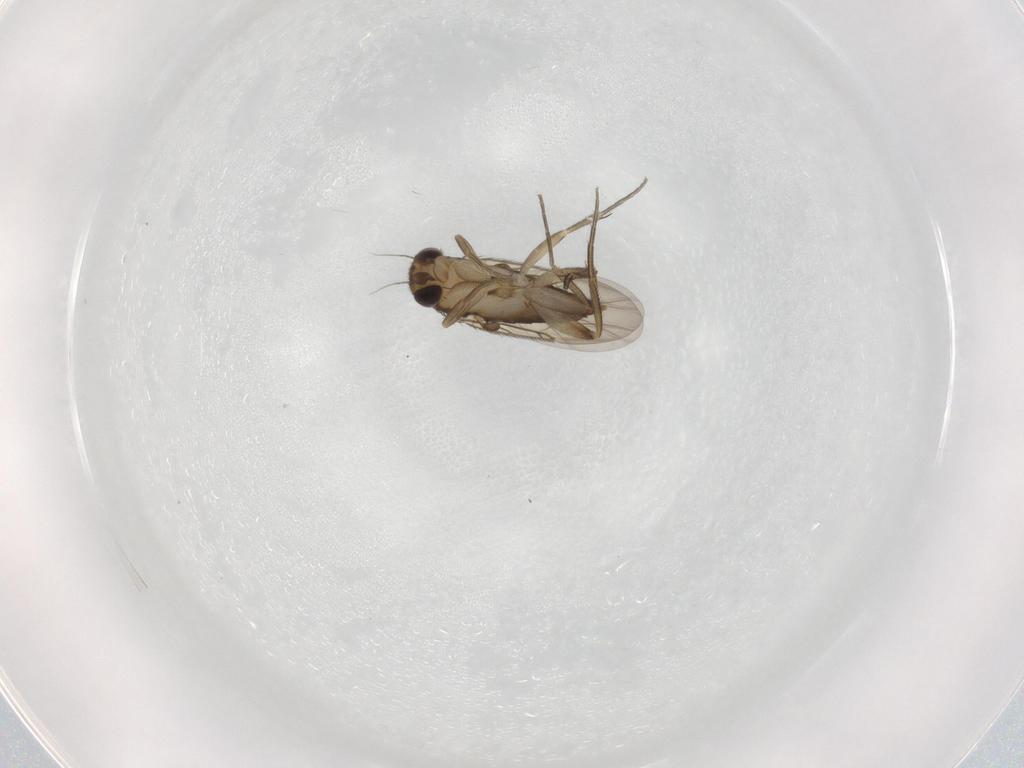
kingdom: Animalia
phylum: Arthropoda
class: Insecta
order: Diptera
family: Phoridae
